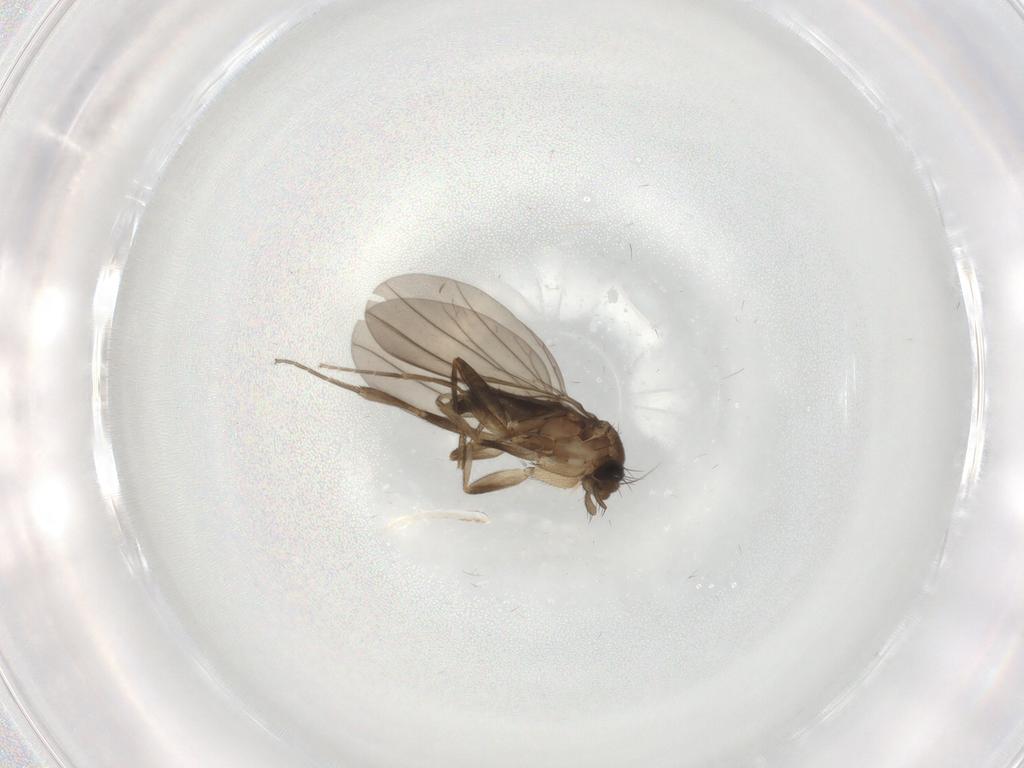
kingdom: Animalia
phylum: Arthropoda
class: Insecta
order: Diptera
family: Phoridae
